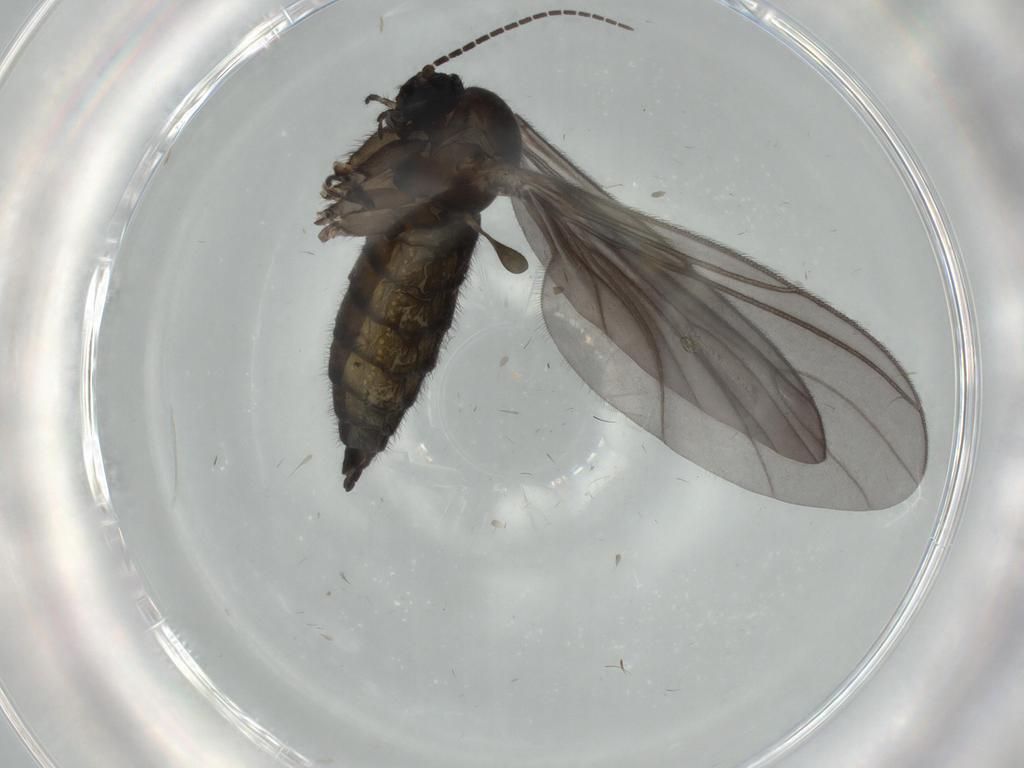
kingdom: Animalia
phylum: Arthropoda
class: Insecta
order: Diptera
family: Sciaridae
